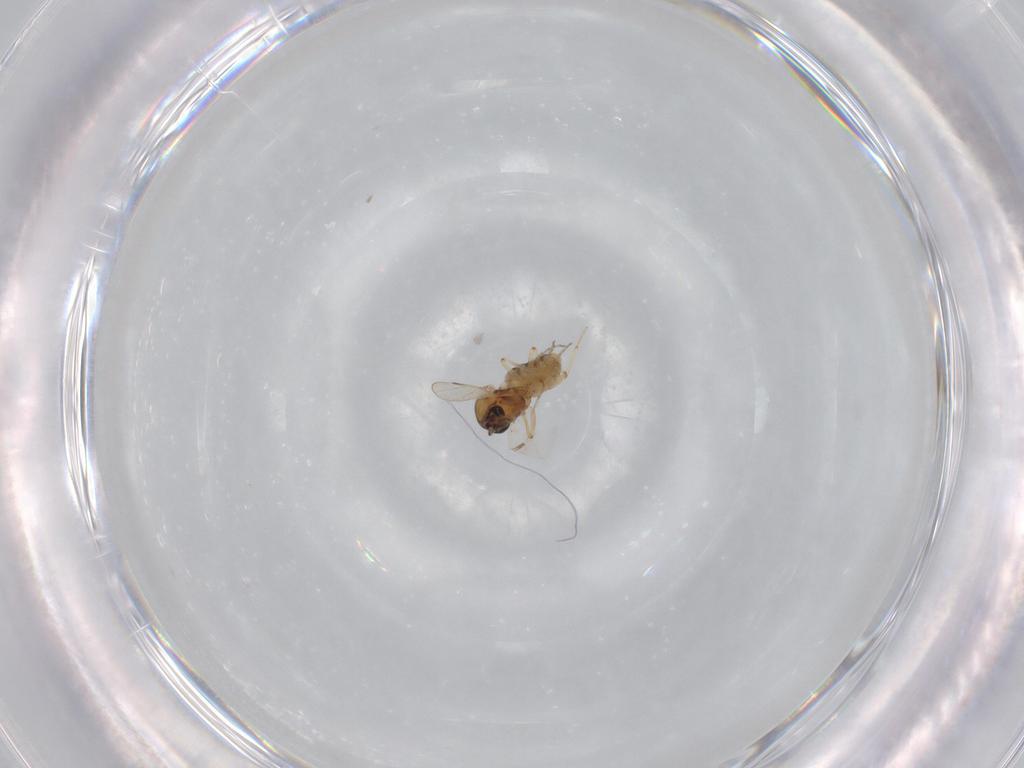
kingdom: Animalia
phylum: Arthropoda
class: Insecta
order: Diptera
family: Ceratopogonidae
